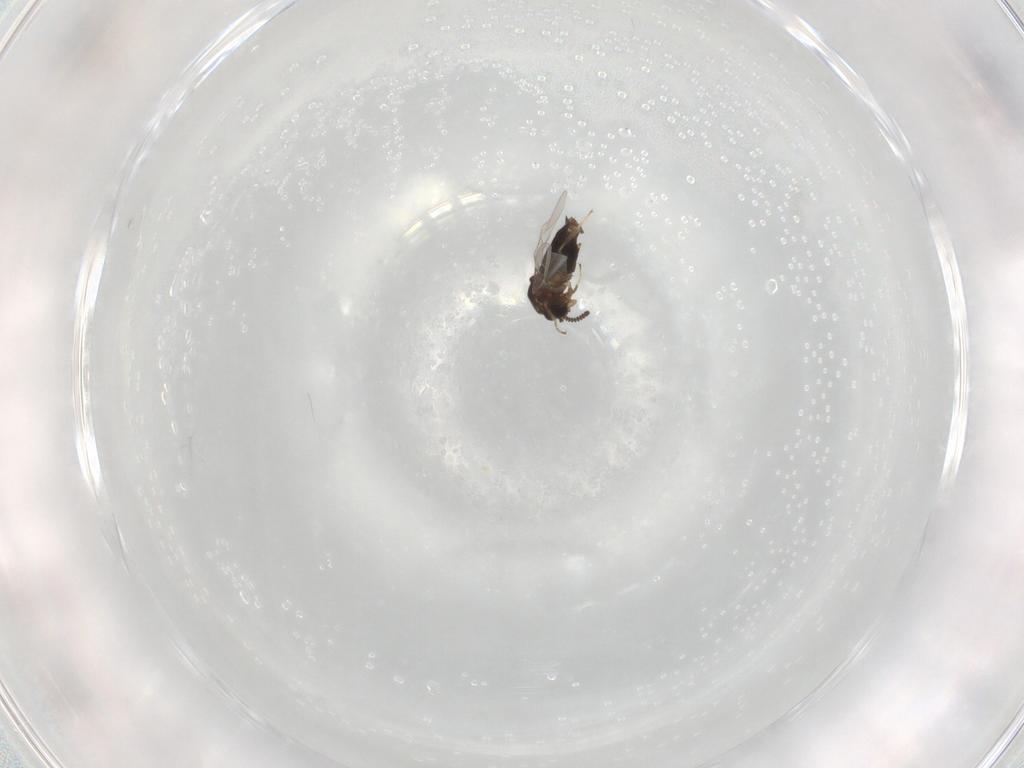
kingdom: Animalia
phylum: Arthropoda
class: Insecta
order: Diptera
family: Scatopsidae
